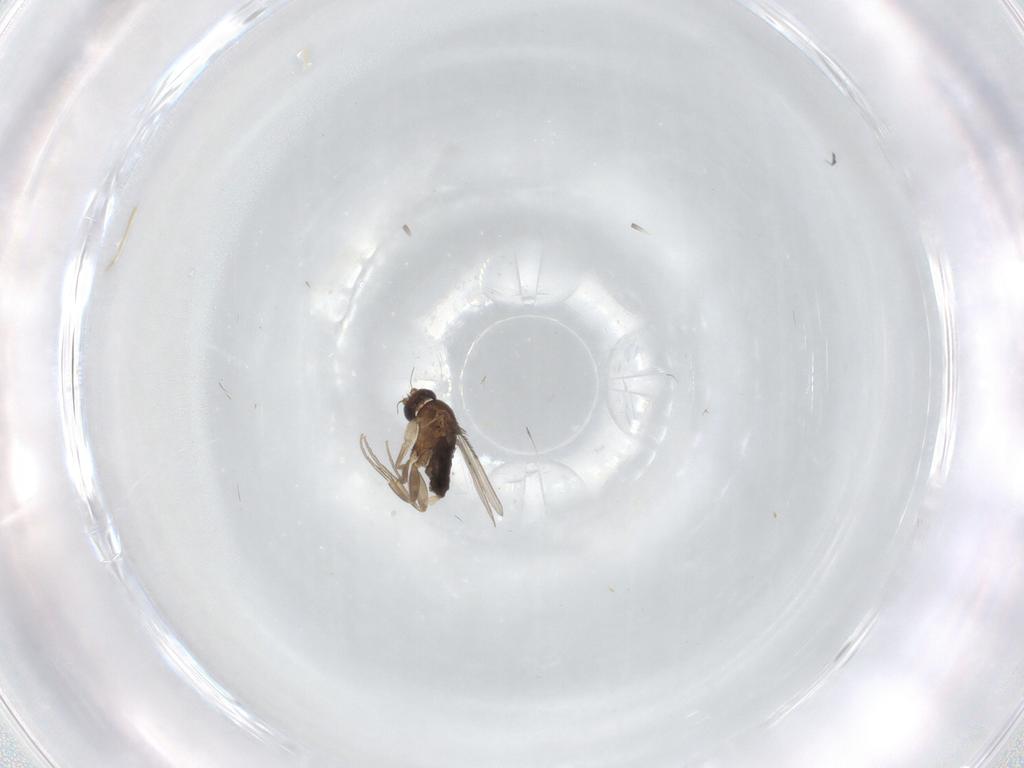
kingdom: Animalia
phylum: Arthropoda
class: Insecta
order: Diptera
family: Phoridae
